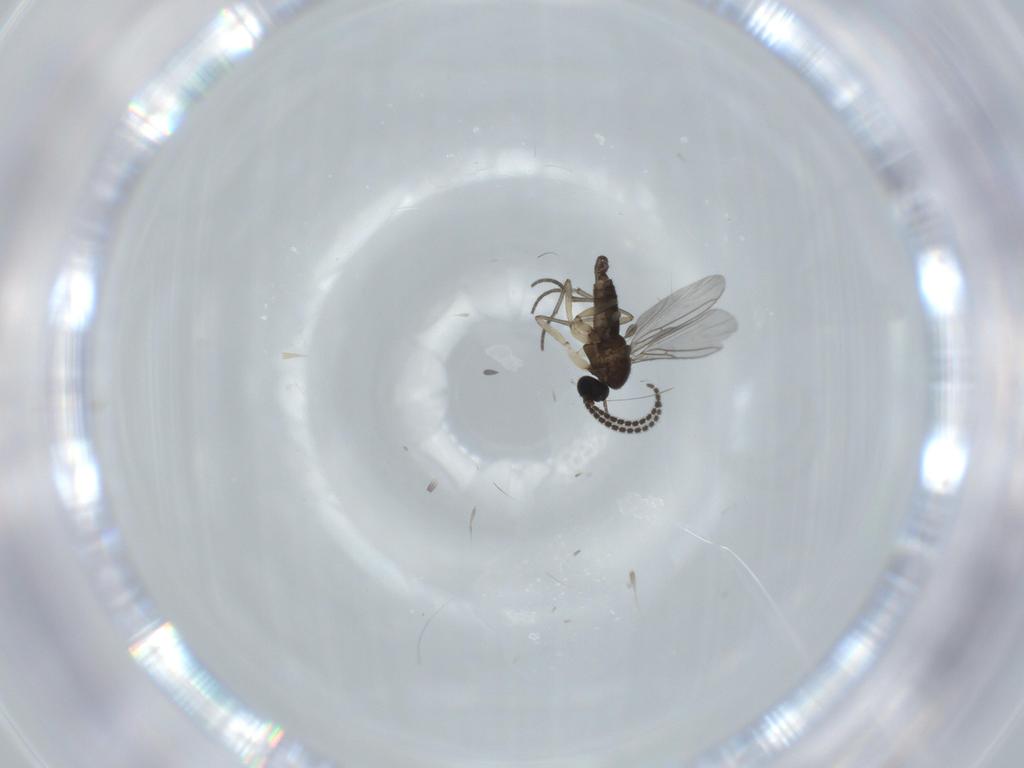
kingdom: Animalia
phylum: Arthropoda
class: Insecta
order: Diptera
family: Sciaridae
